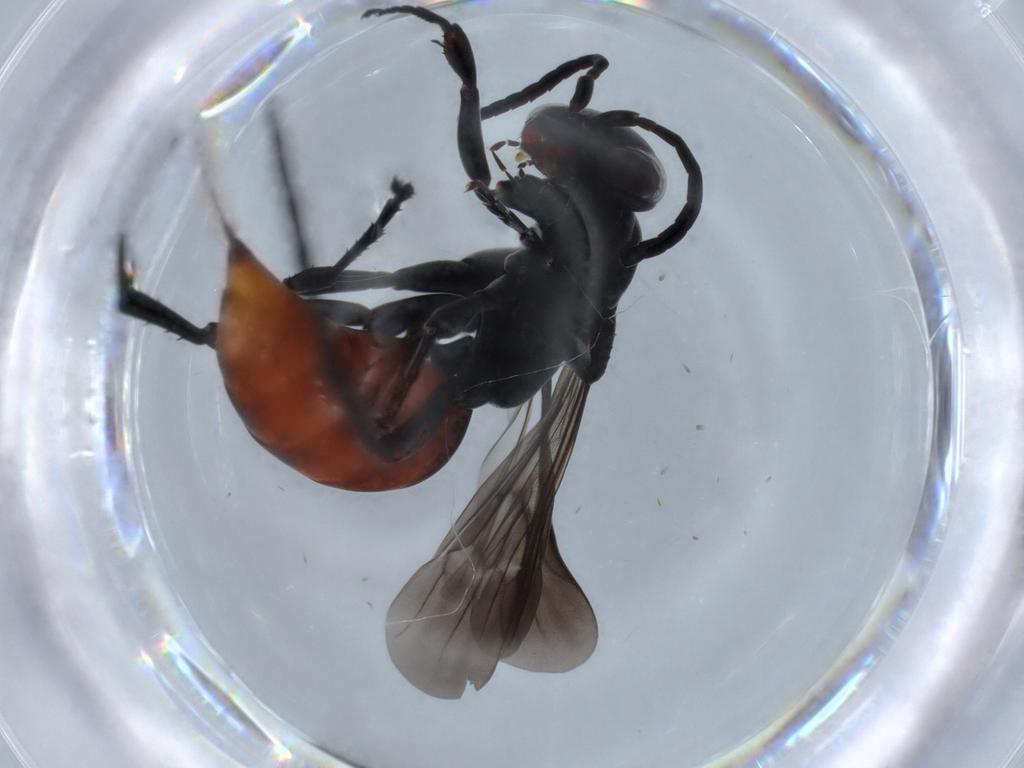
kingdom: Animalia
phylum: Arthropoda
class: Insecta
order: Hymenoptera
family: Pompilidae
